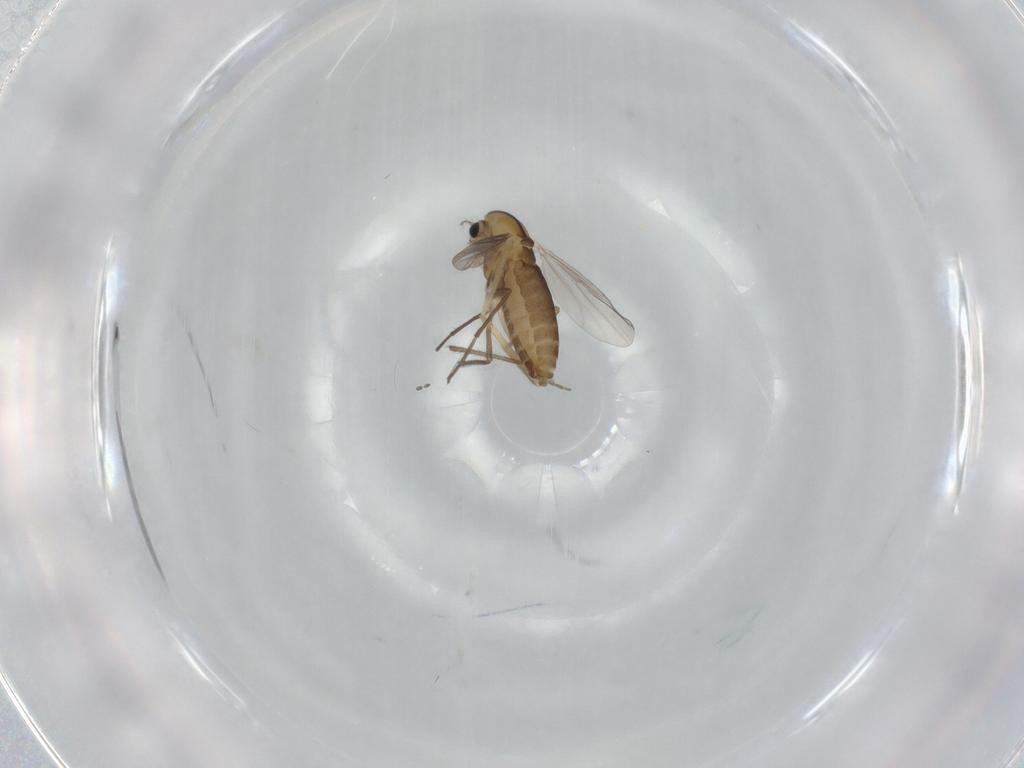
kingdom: Animalia
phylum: Arthropoda
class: Insecta
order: Diptera
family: Chironomidae
